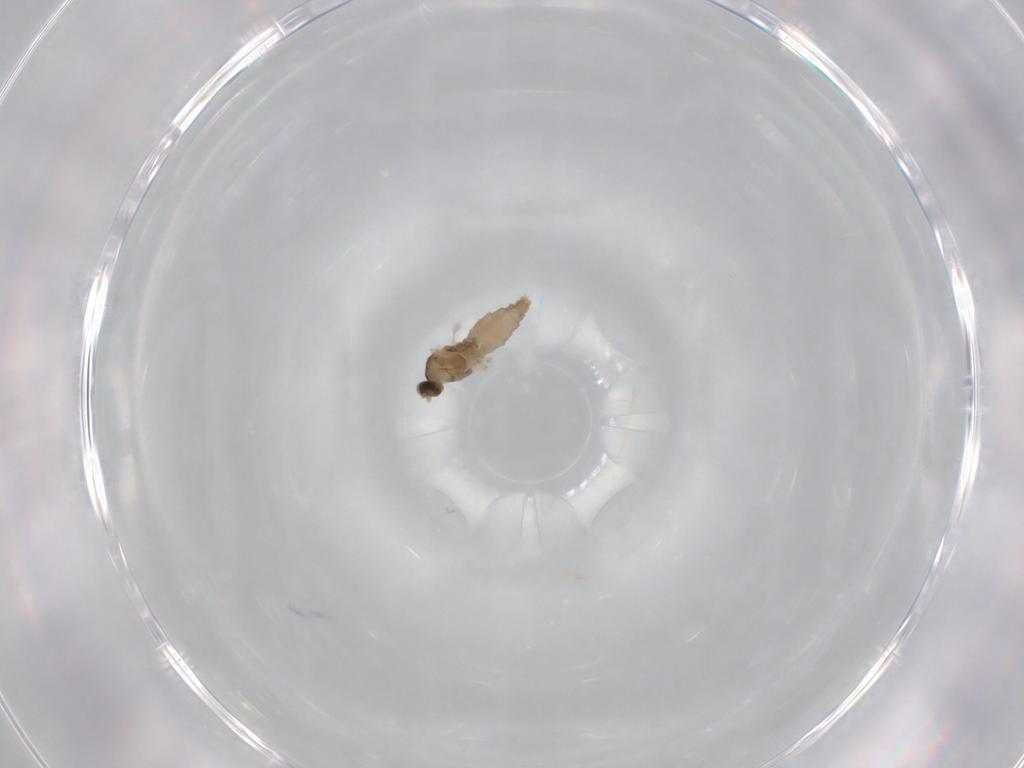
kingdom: Animalia
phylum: Arthropoda
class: Insecta
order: Diptera
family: Cecidomyiidae
